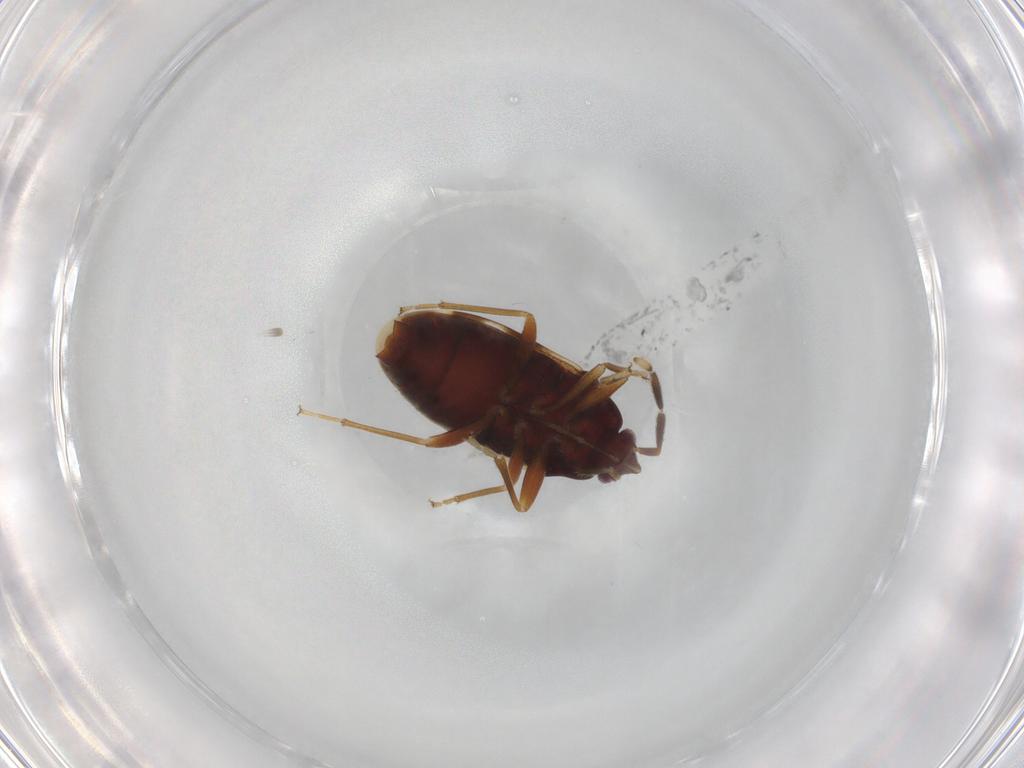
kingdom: Animalia
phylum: Arthropoda
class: Insecta
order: Hemiptera
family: Rhyparochromidae
